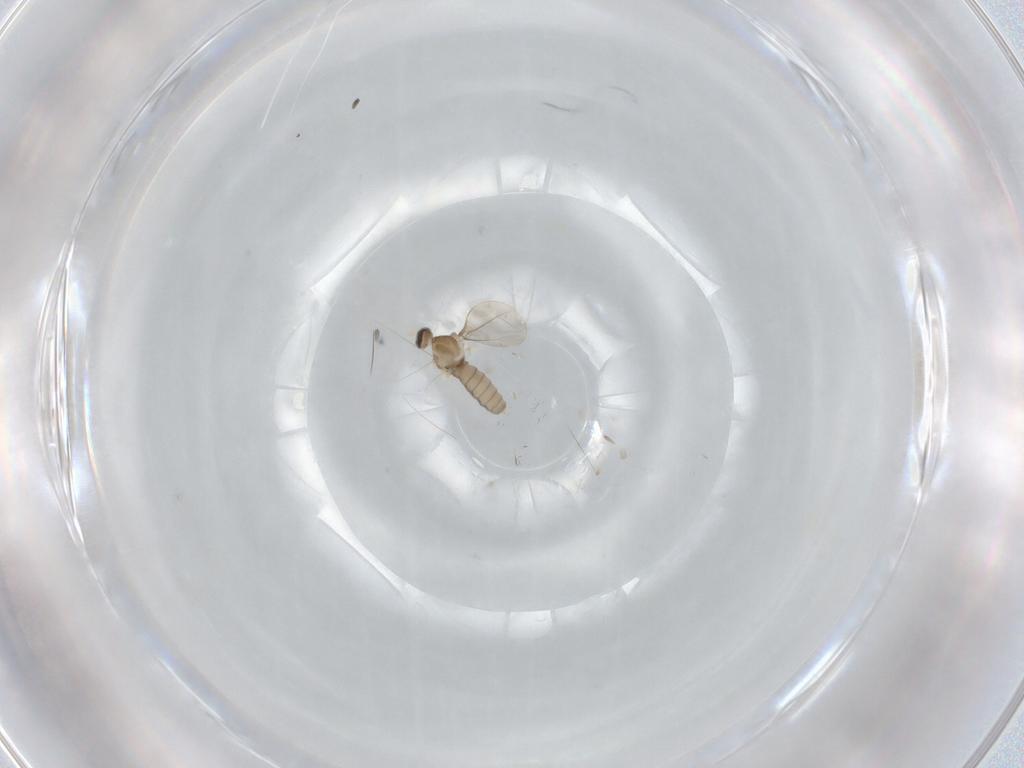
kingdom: Animalia
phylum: Arthropoda
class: Insecta
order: Diptera
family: Cecidomyiidae
